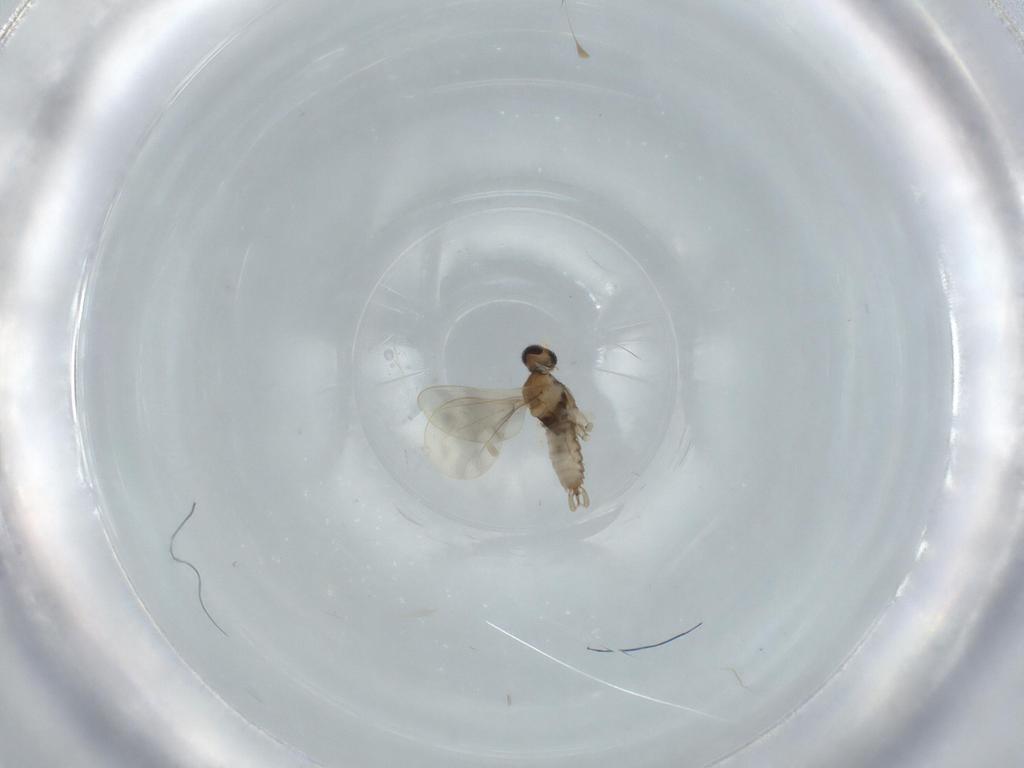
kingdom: Animalia
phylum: Arthropoda
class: Insecta
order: Diptera
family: Cecidomyiidae
